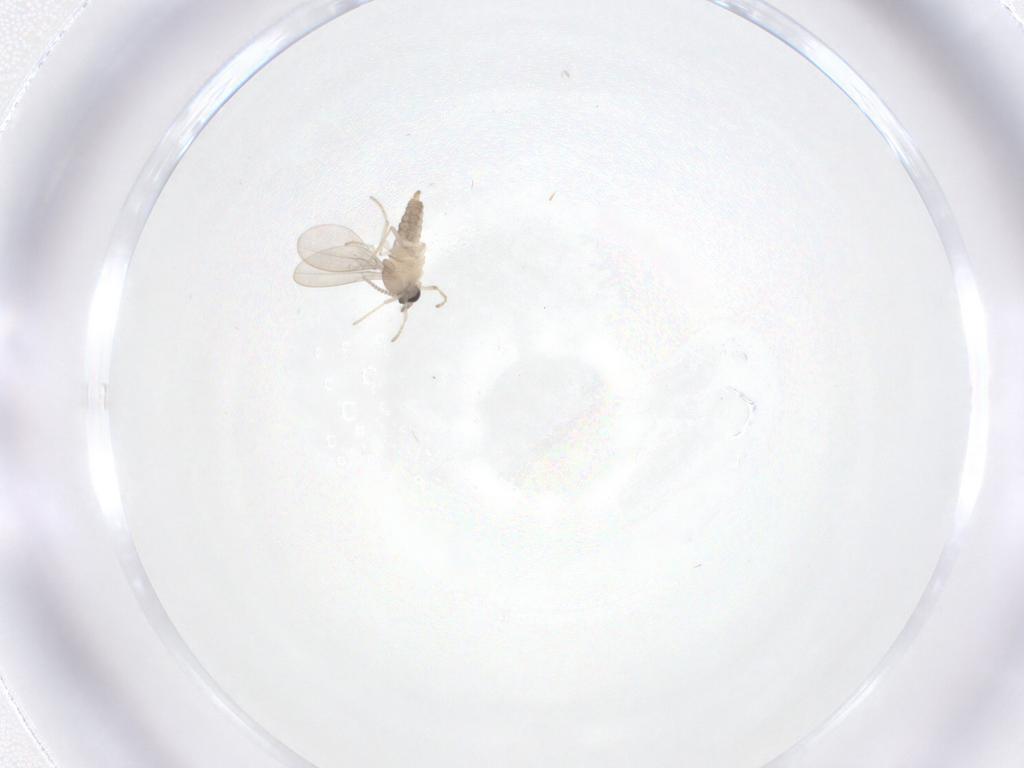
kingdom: Animalia
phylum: Arthropoda
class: Insecta
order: Diptera
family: Cecidomyiidae
